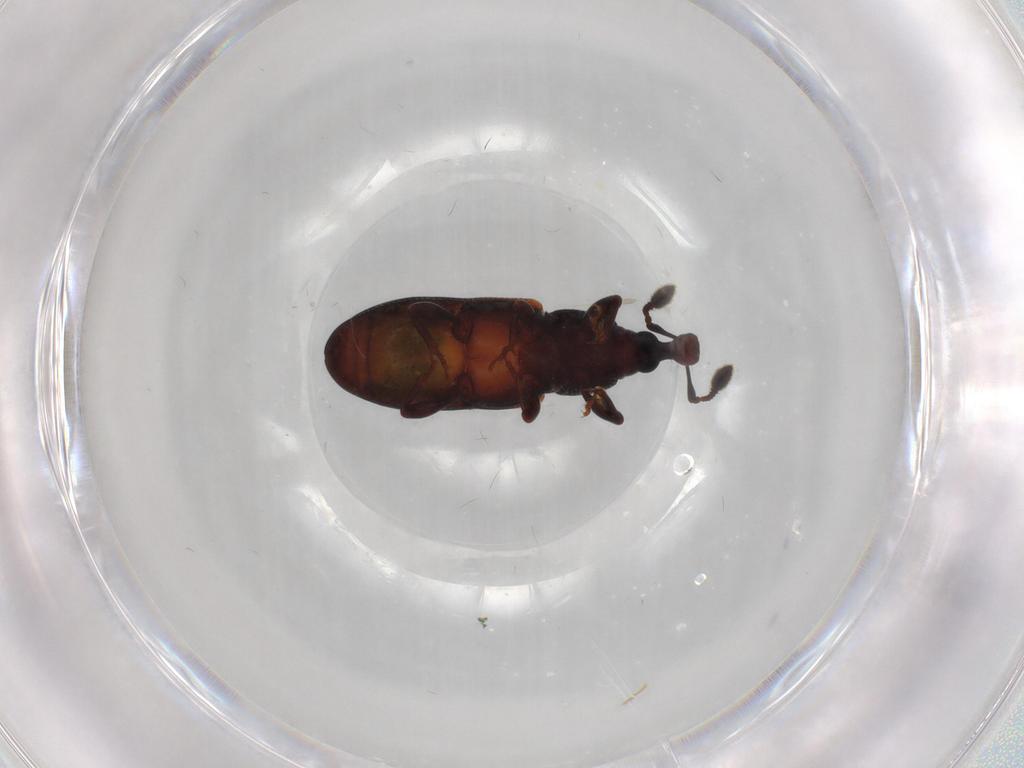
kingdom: Animalia
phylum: Arthropoda
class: Insecta
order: Coleoptera
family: Curculionidae
